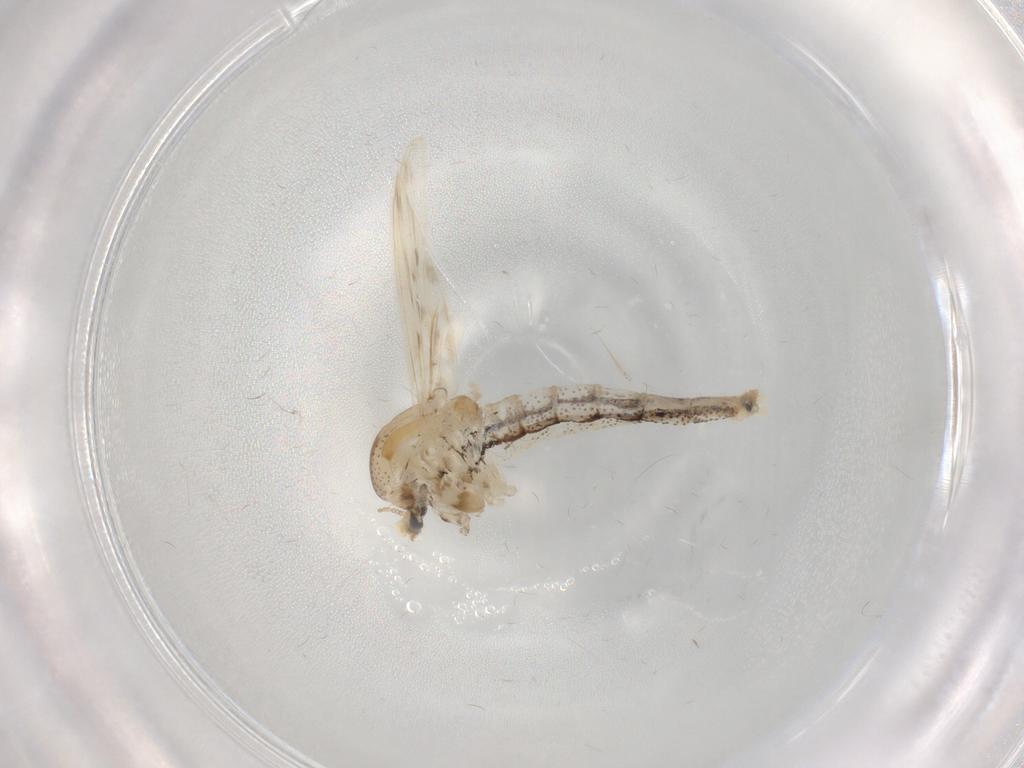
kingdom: Animalia
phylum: Arthropoda
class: Insecta
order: Diptera
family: Chaoboridae
